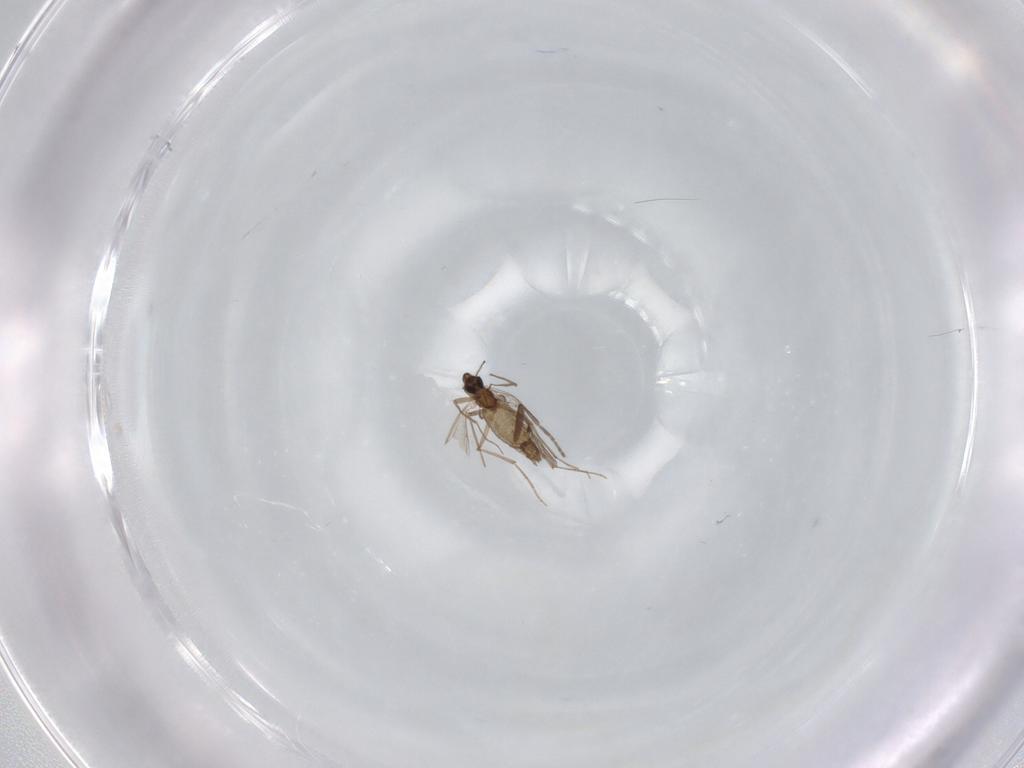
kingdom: Animalia
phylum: Arthropoda
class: Insecta
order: Diptera
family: Chironomidae
